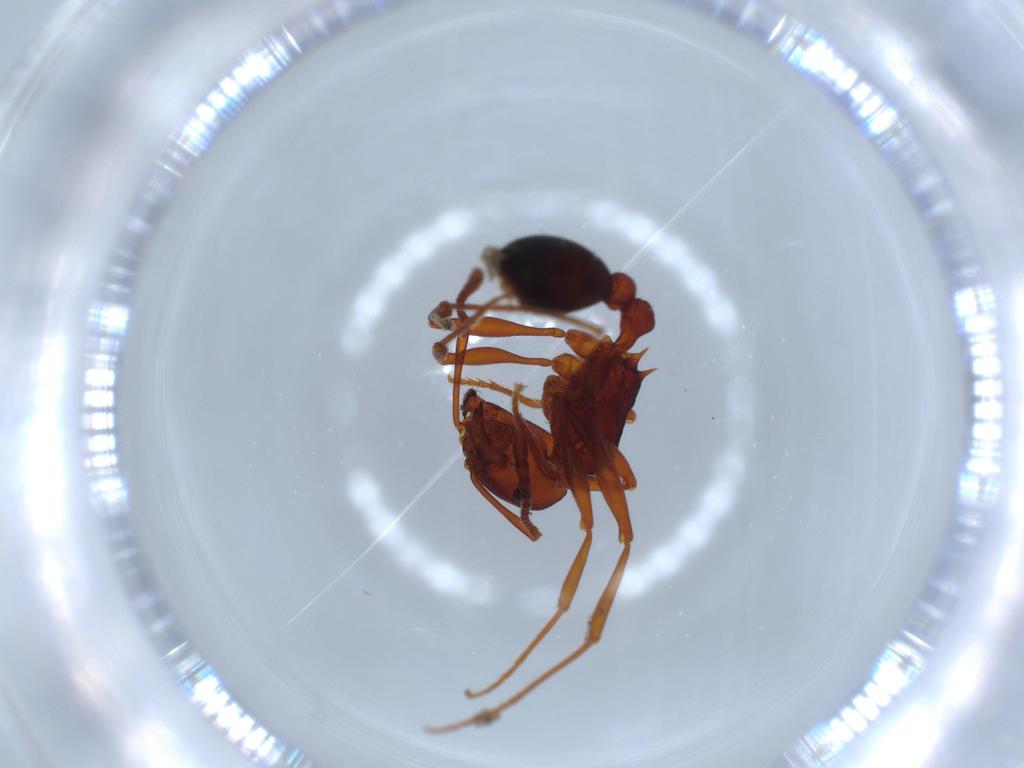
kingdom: Animalia
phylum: Arthropoda
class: Insecta
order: Hymenoptera
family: Formicidae
